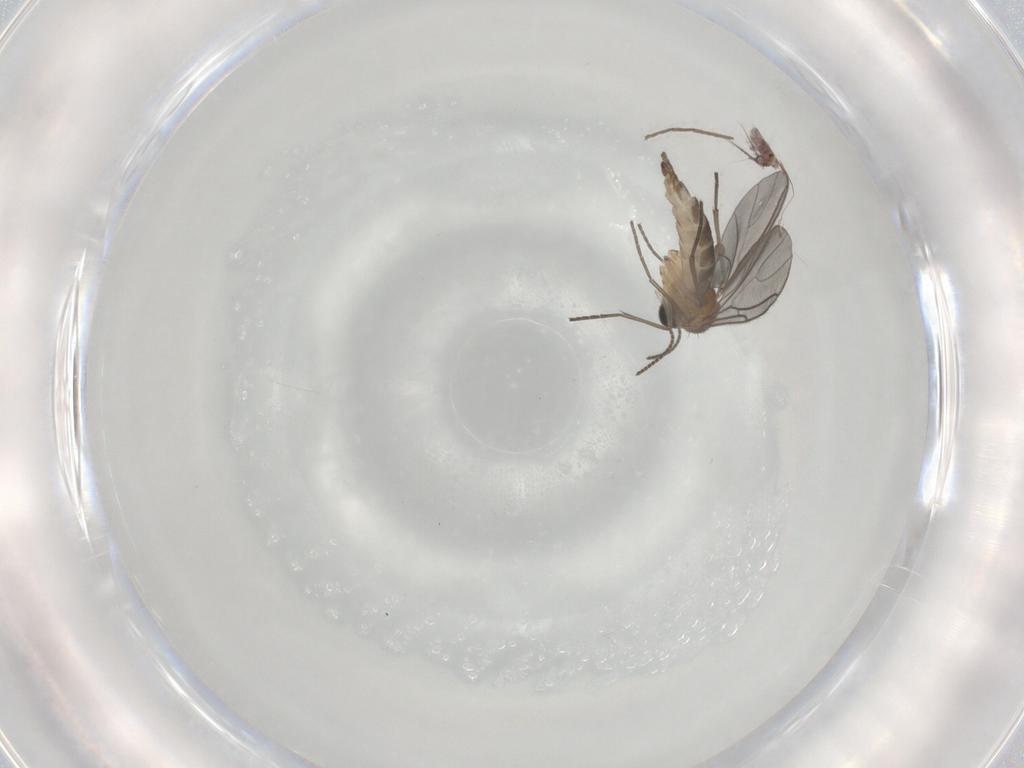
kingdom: Animalia
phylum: Arthropoda
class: Insecta
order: Diptera
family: Sciaridae
